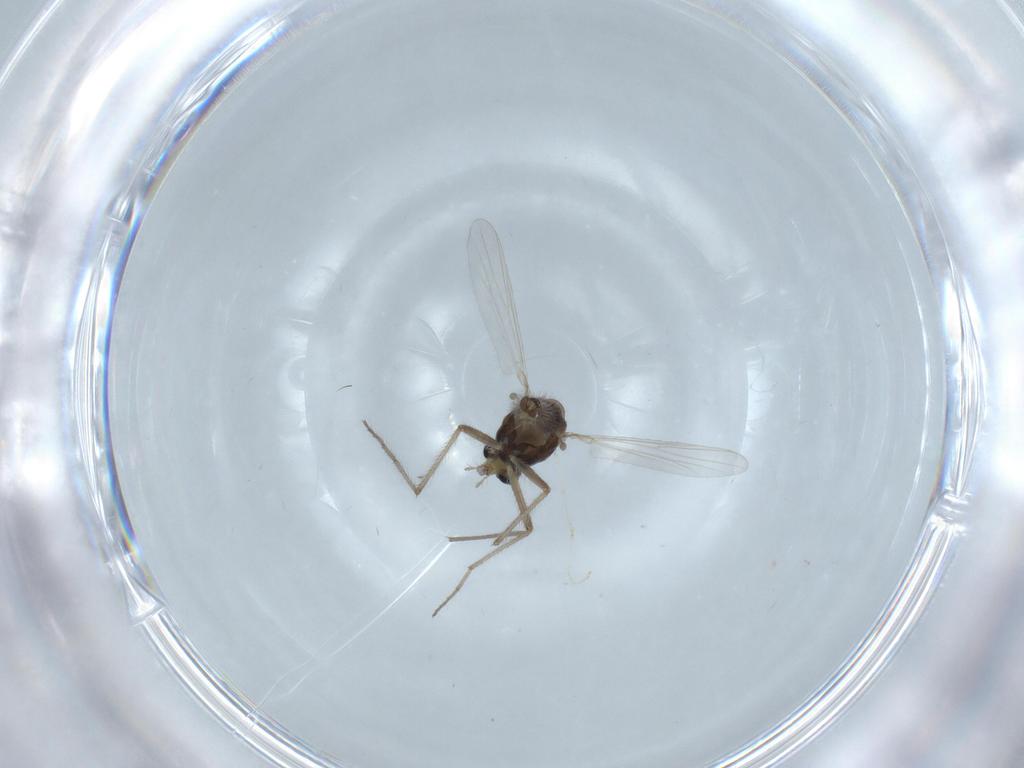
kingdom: Animalia
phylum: Arthropoda
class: Insecta
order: Diptera
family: Chironomidae
